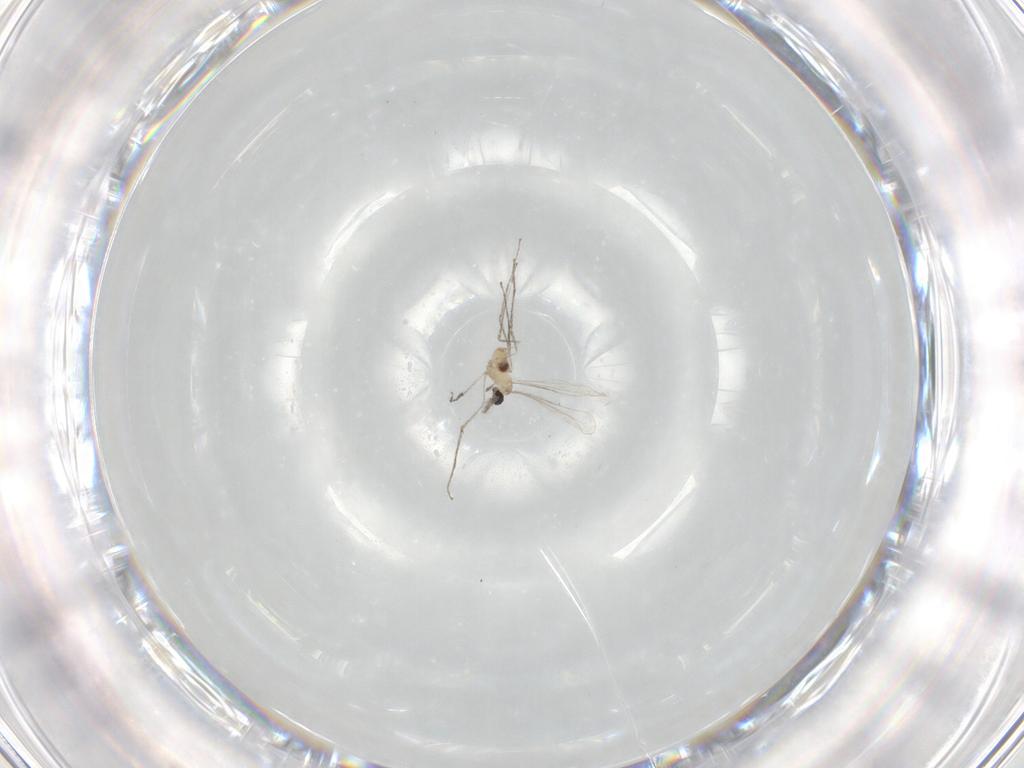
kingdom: Animalia
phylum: Arthropoda
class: Insecta
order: Diptera
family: Cecidomyiidae
